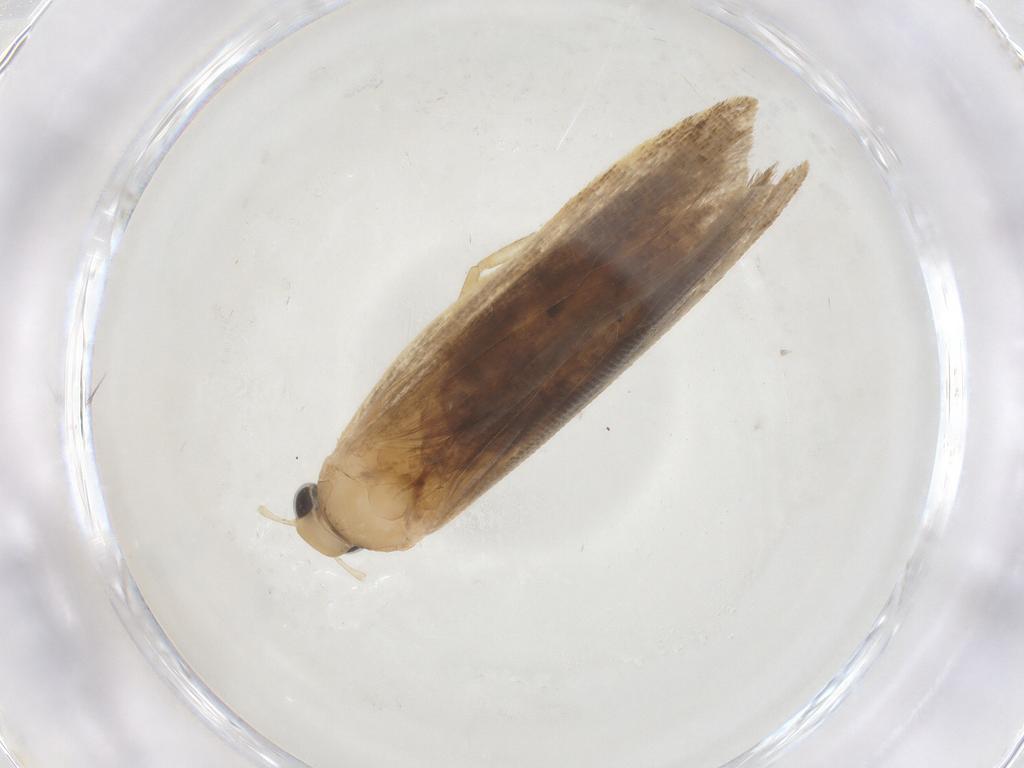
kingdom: Animalia
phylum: Arthropoda
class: Insecta
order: Lepidoptera
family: Gelechiidae
